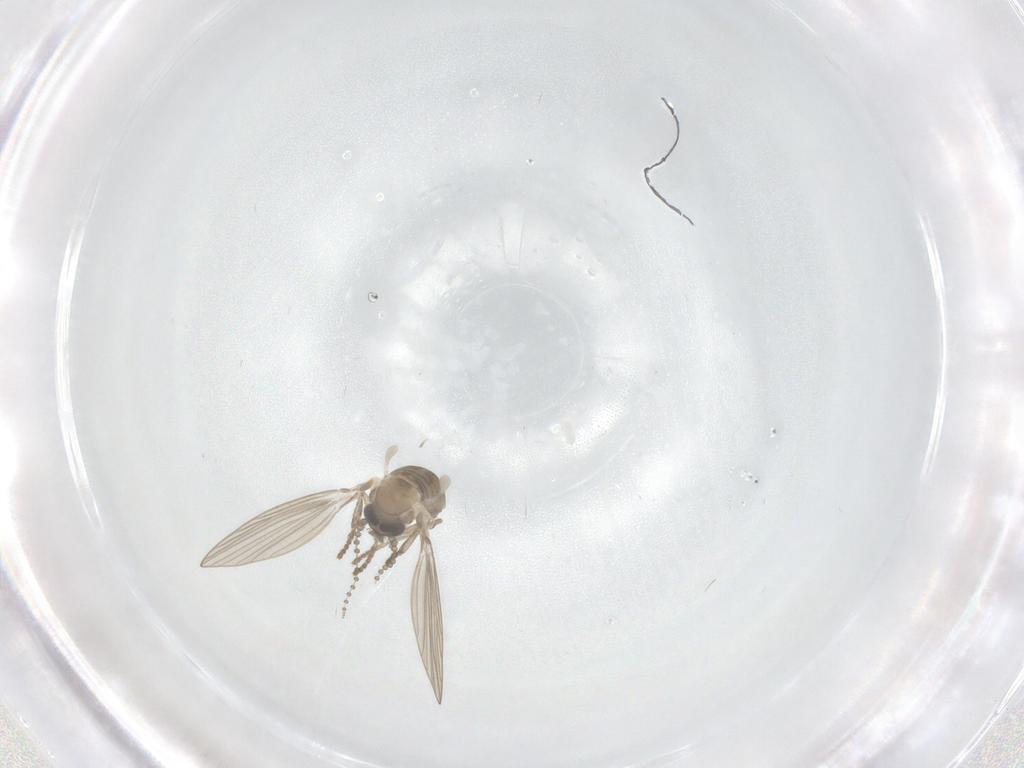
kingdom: Animalia
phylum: Arthropoda
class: Insecta
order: Diptera
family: Psychodidae
